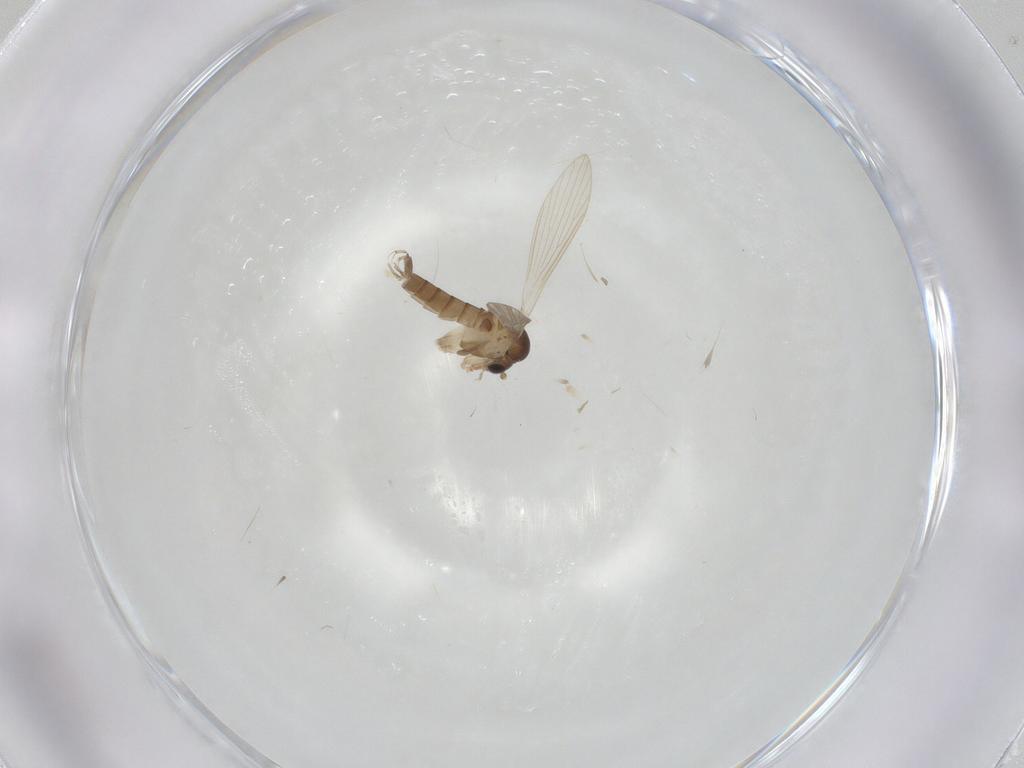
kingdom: Animalia
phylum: Arthropoda
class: Insecta
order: Diptera
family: Psychodidae
